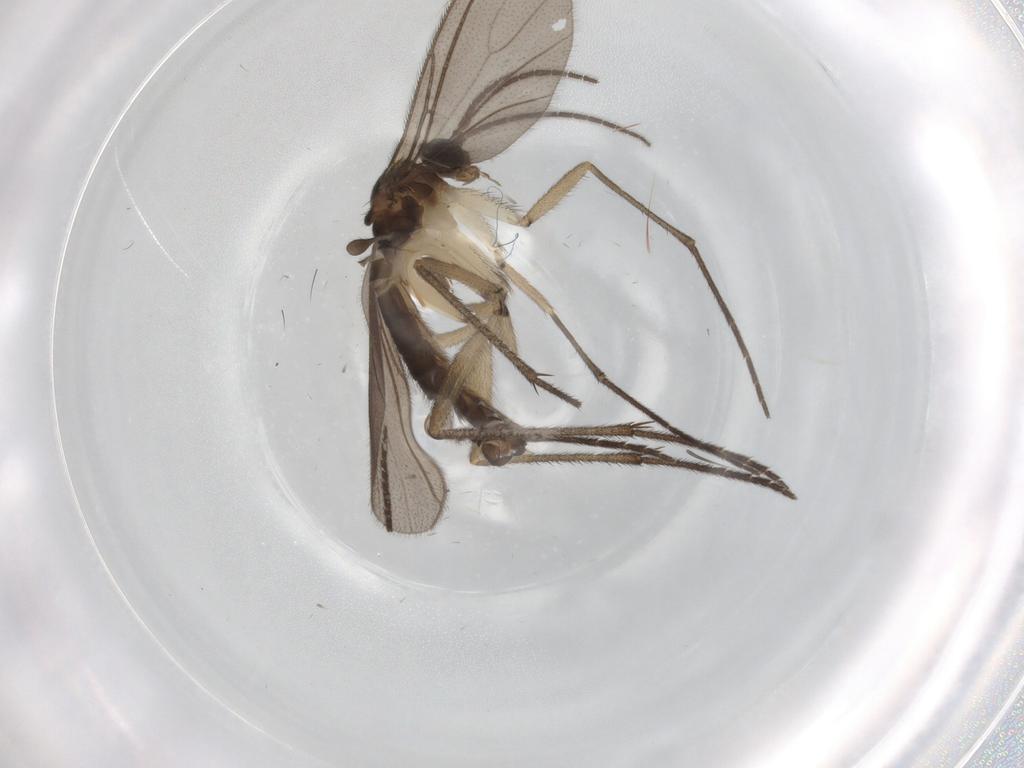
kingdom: Animalia
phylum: Arthropoda
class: Insecta
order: Diptera
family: Sciaridae
